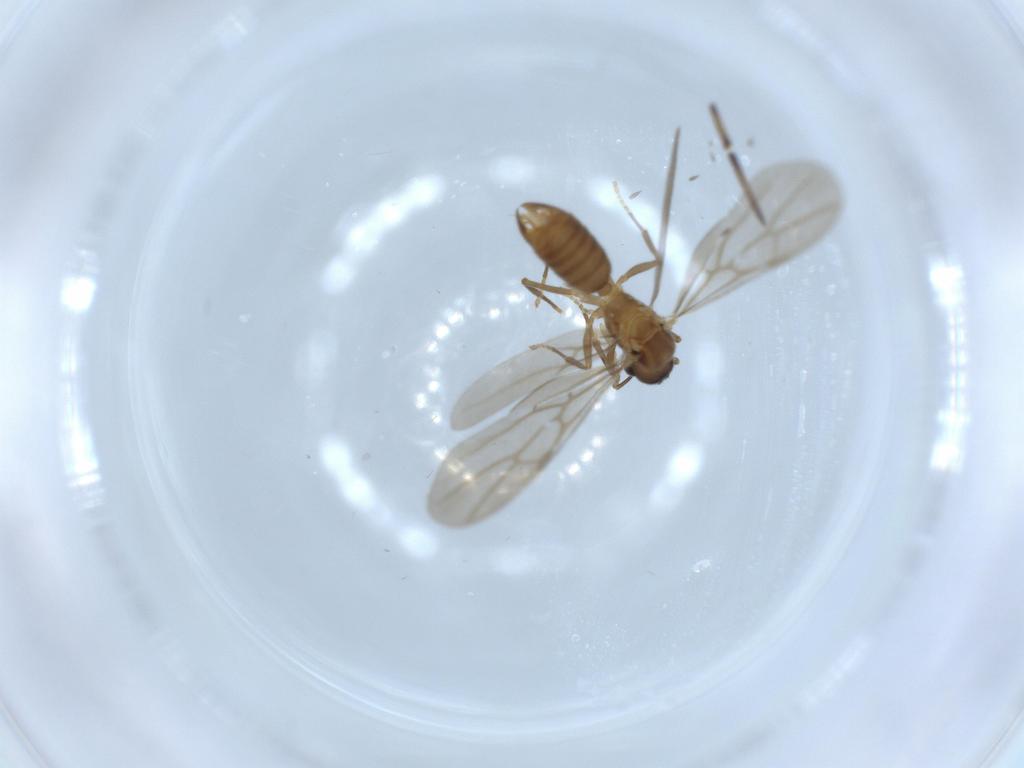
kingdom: Animalia
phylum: Arthropoda
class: Insecta
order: Hymenoptera
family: Formicidae
